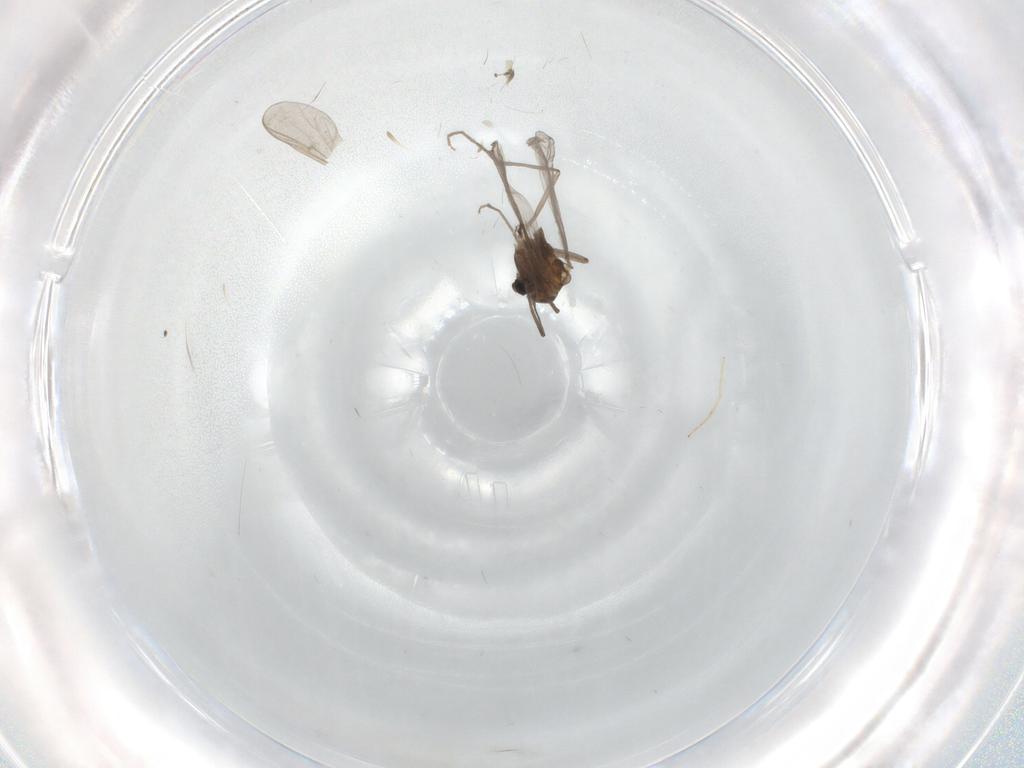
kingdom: Animalia
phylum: Arthropoda
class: Insecta
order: Diptera
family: Chironomidae
